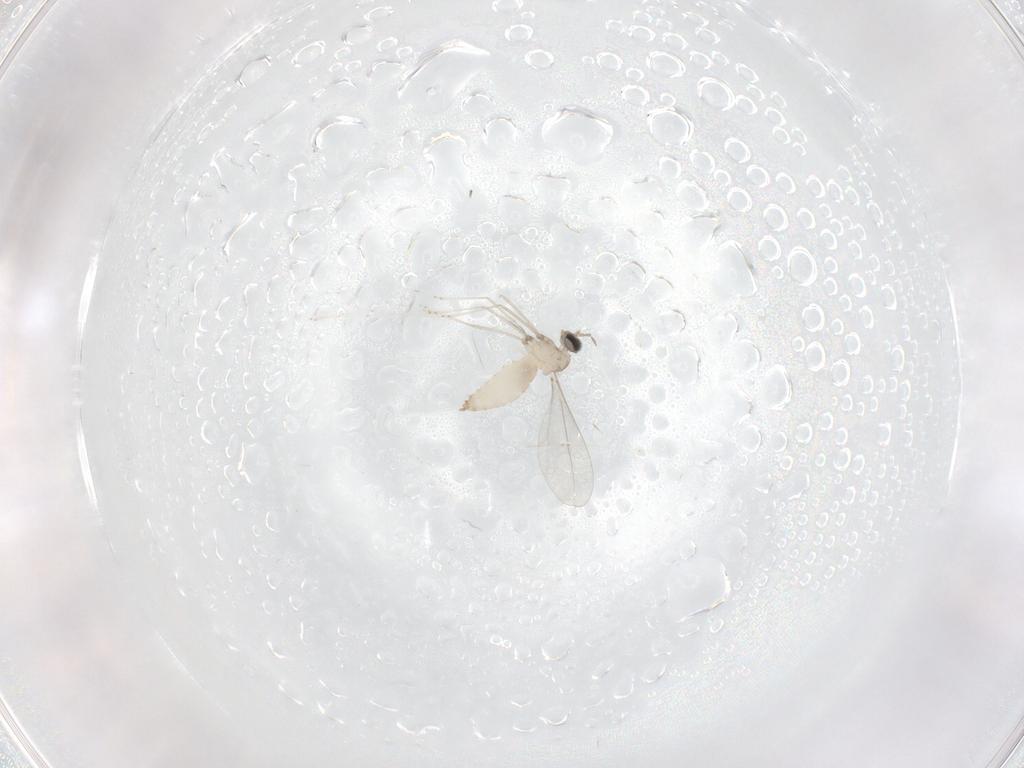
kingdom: Animalia
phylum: Arthropoda
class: Insecta
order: Diptera
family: Cecidomyiidae
